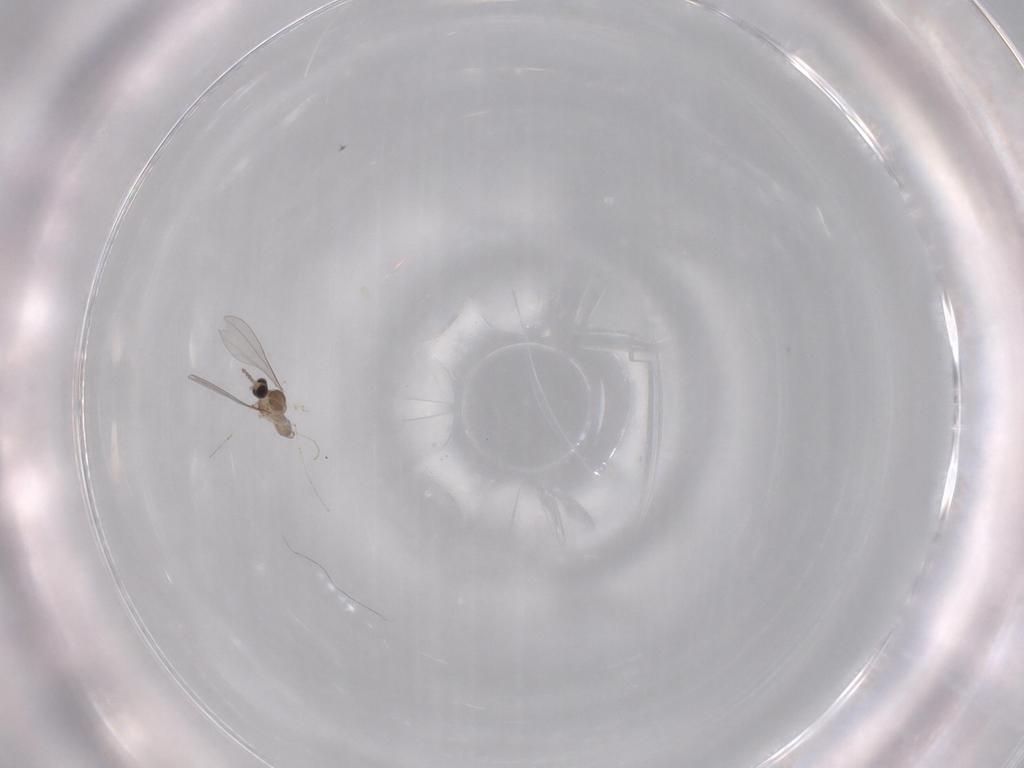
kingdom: Animalia
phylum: Arthropoda
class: Insecta
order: Diptera
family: Cecidomyiidae
